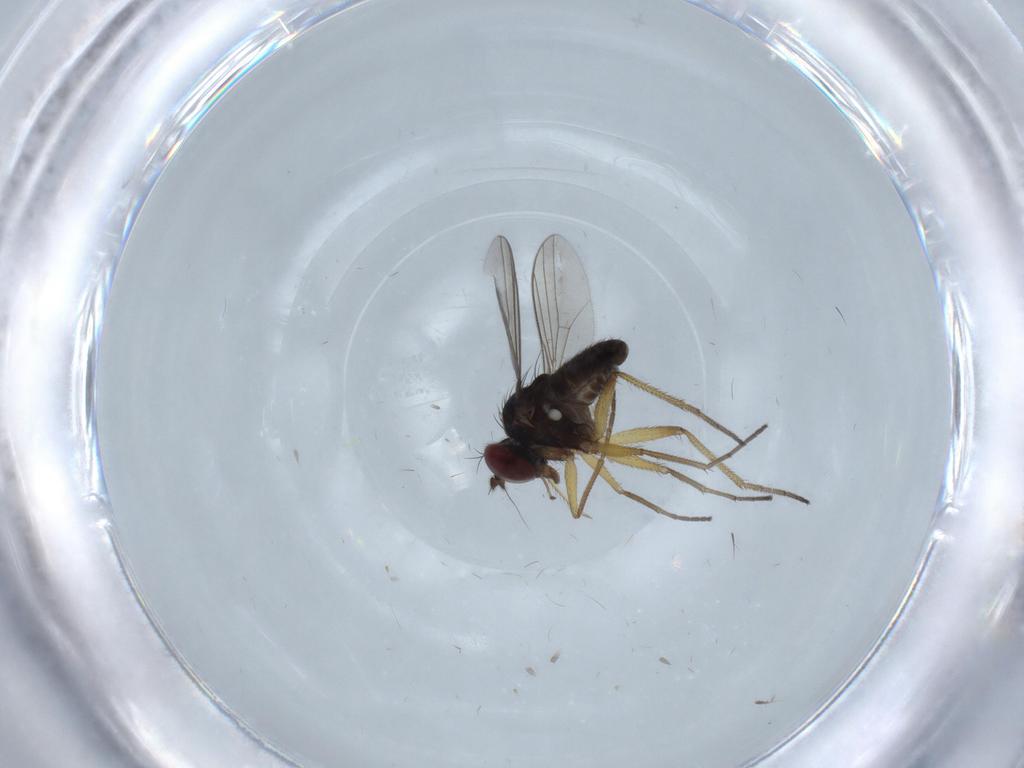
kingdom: Animalia
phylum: Arthropoda
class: Insecta
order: Diptera
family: Dolichopodidae
